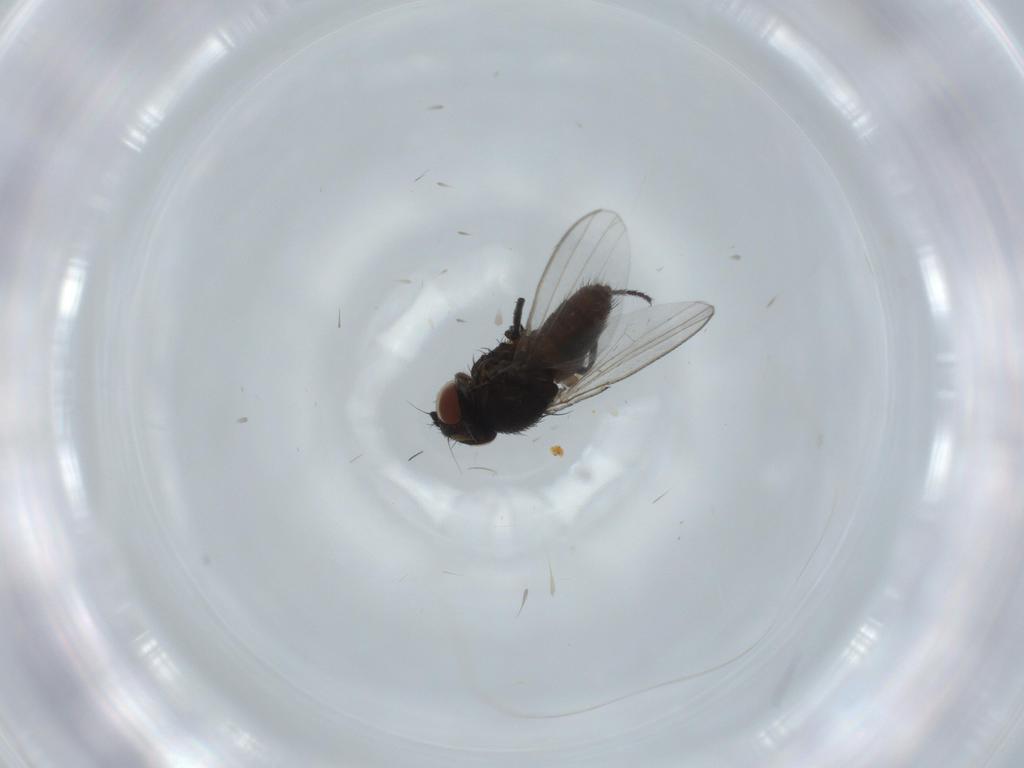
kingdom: Animalia
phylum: Arthropoda
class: Insecta
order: Diptera
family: Milichiidae
